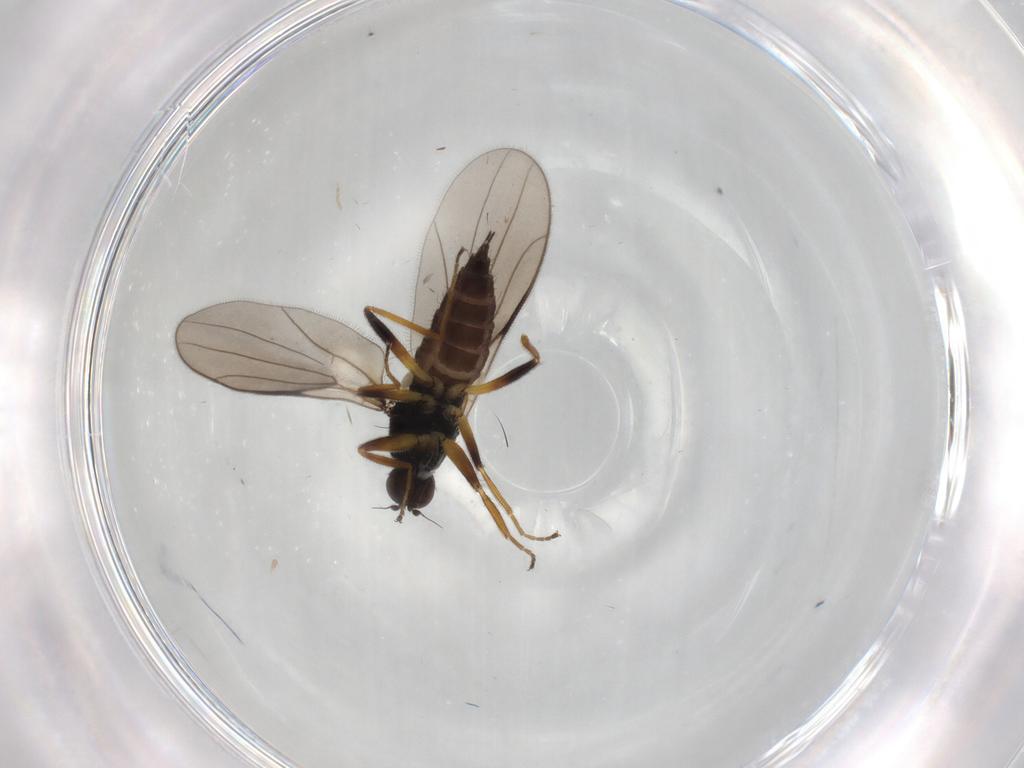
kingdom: Animalia
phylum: Arthropoda
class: Insecta
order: Diptera
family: Hybotidae
